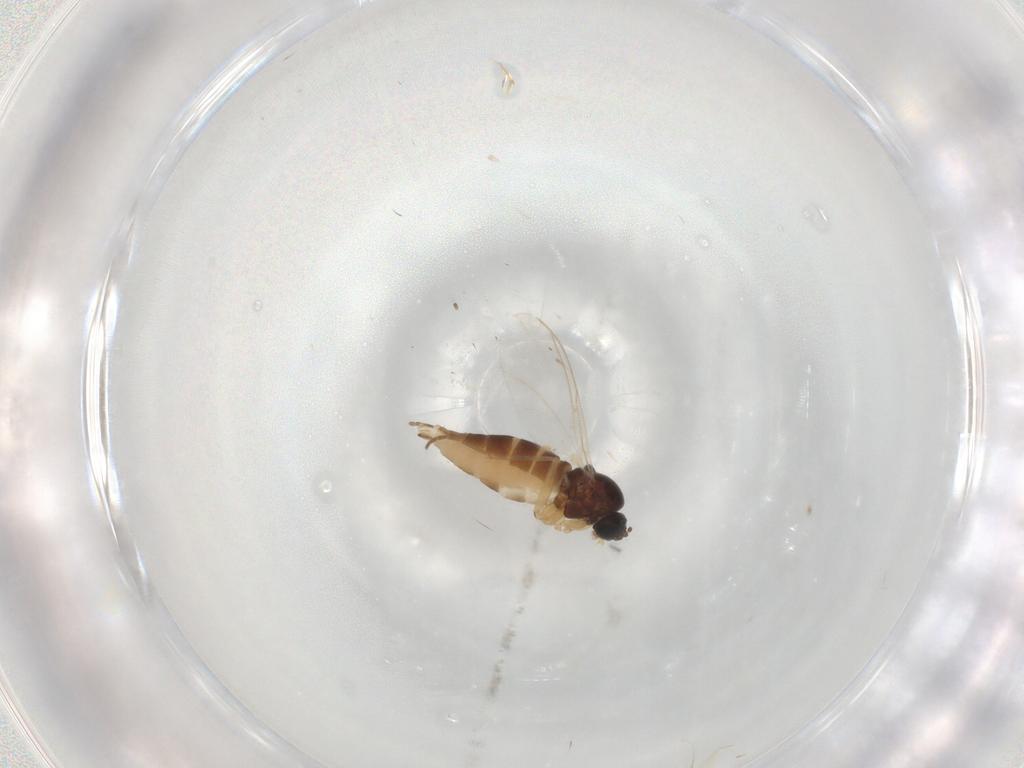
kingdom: Animalia
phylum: Arthropoda
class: Insecta
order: Diptera
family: Sciaridae
